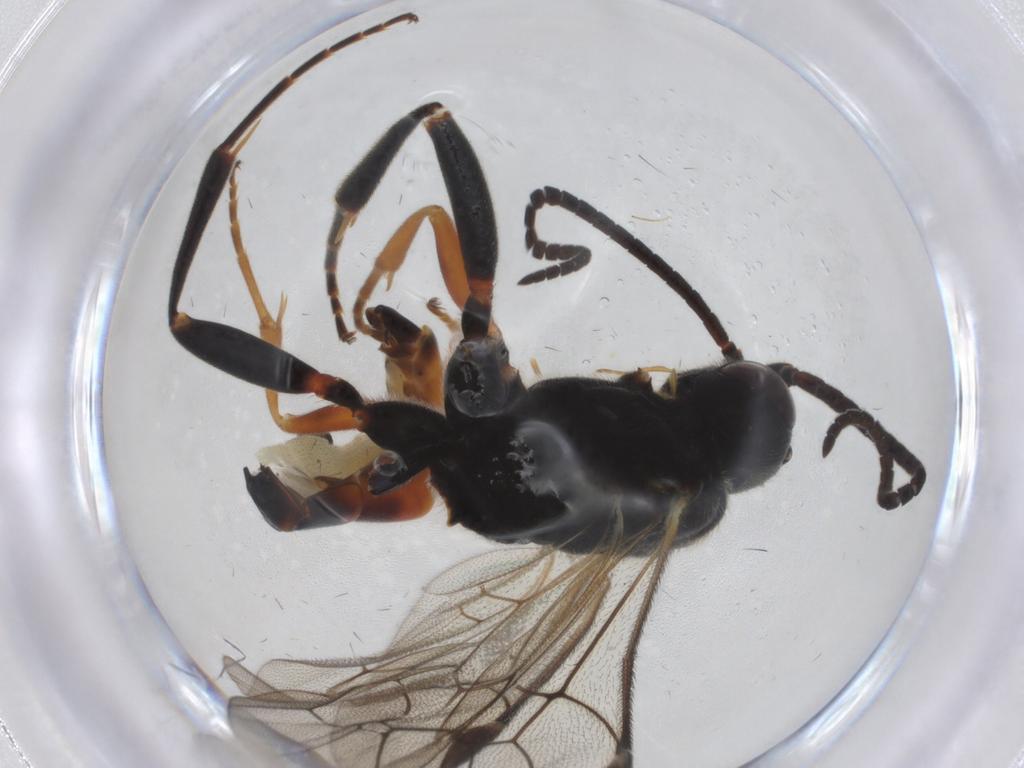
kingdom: Animalia
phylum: Arthropoda
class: Insecta
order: Hymenoptera
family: Ichneumonidae
